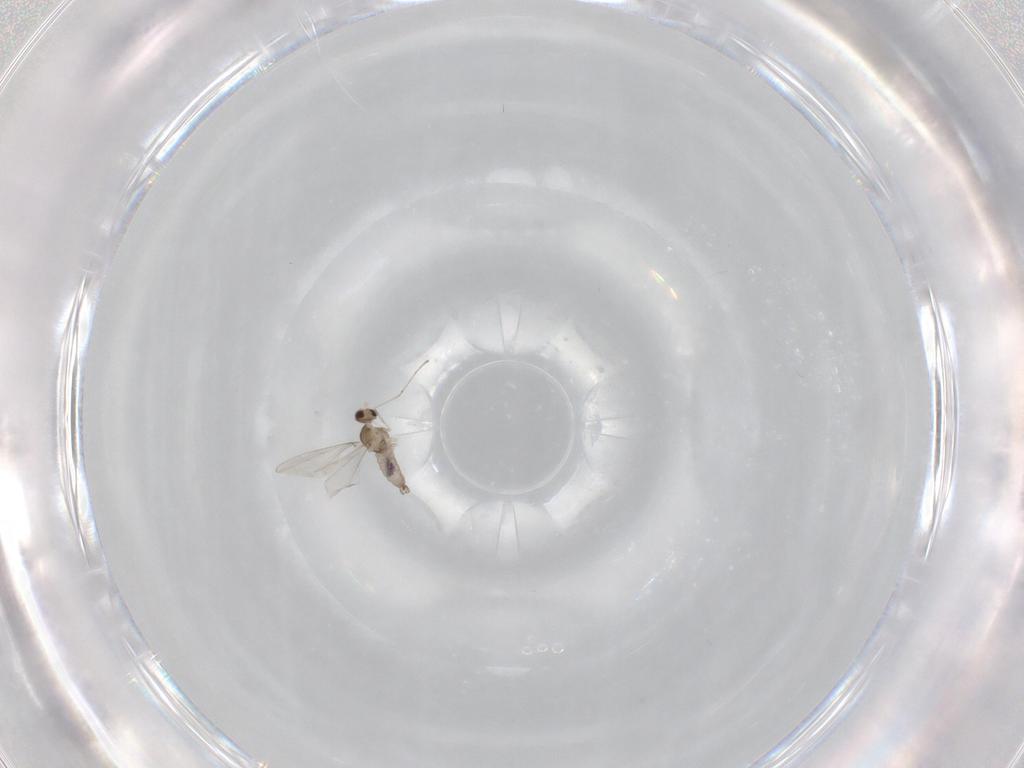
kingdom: Animalia
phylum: Arthropoda
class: Insecta
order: Diptera
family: Cecidomyiidae
